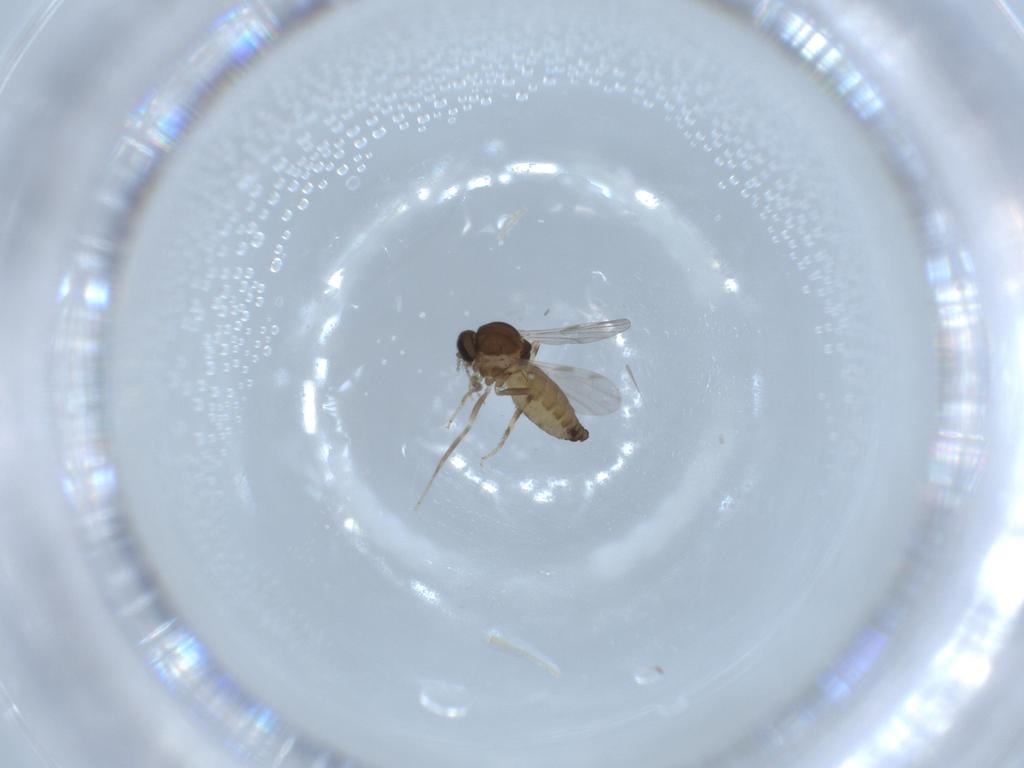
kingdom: Animalia
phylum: Arthropoda
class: Insecta
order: Diptera
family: Ceratopogonidae
